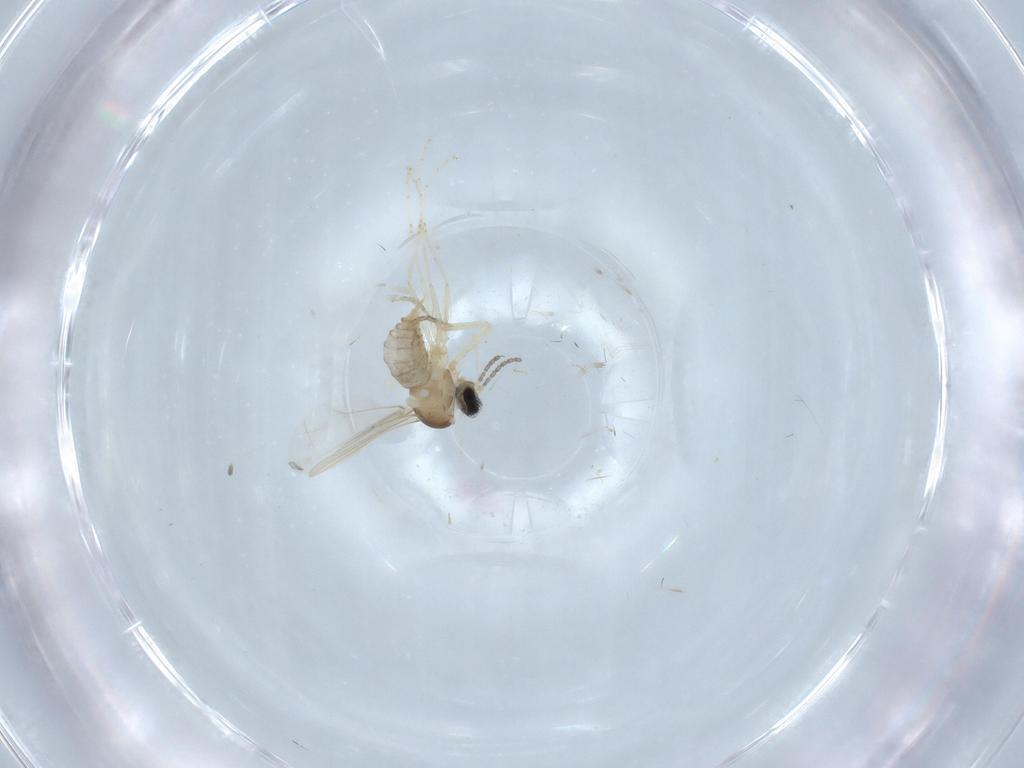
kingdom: Animalia
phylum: Arthropoda
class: Insecta
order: Diptera
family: Cecidomyiidae
